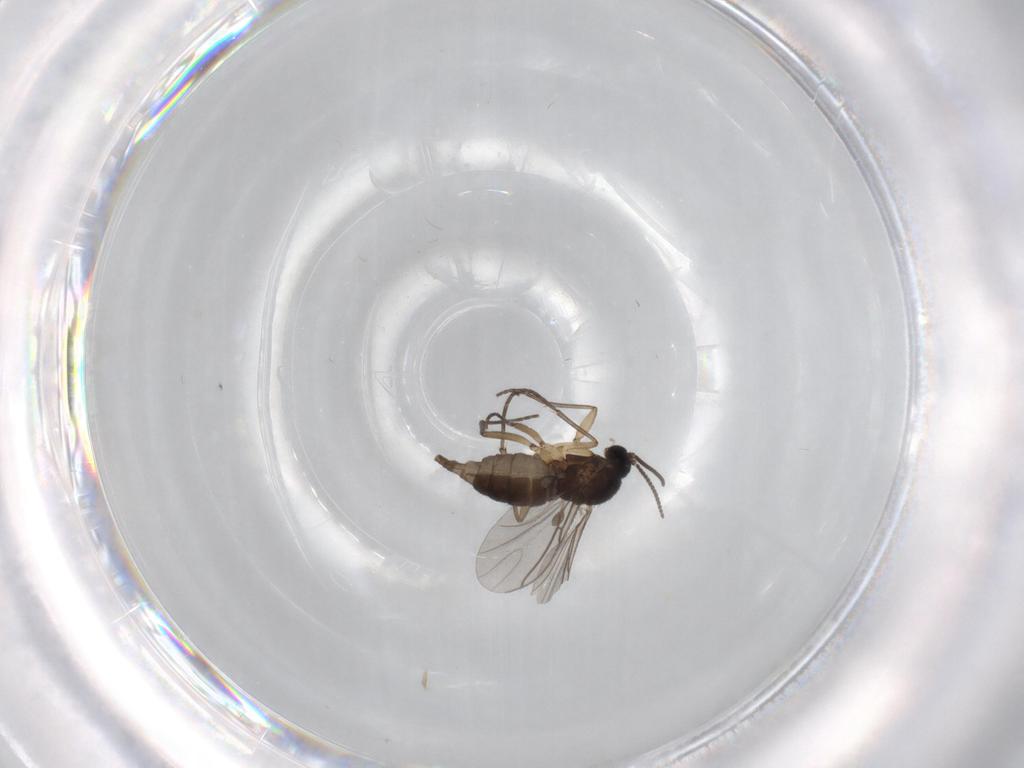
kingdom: Animalia
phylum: Arthropoda
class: Insecta
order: Diptera
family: Sciaridae
